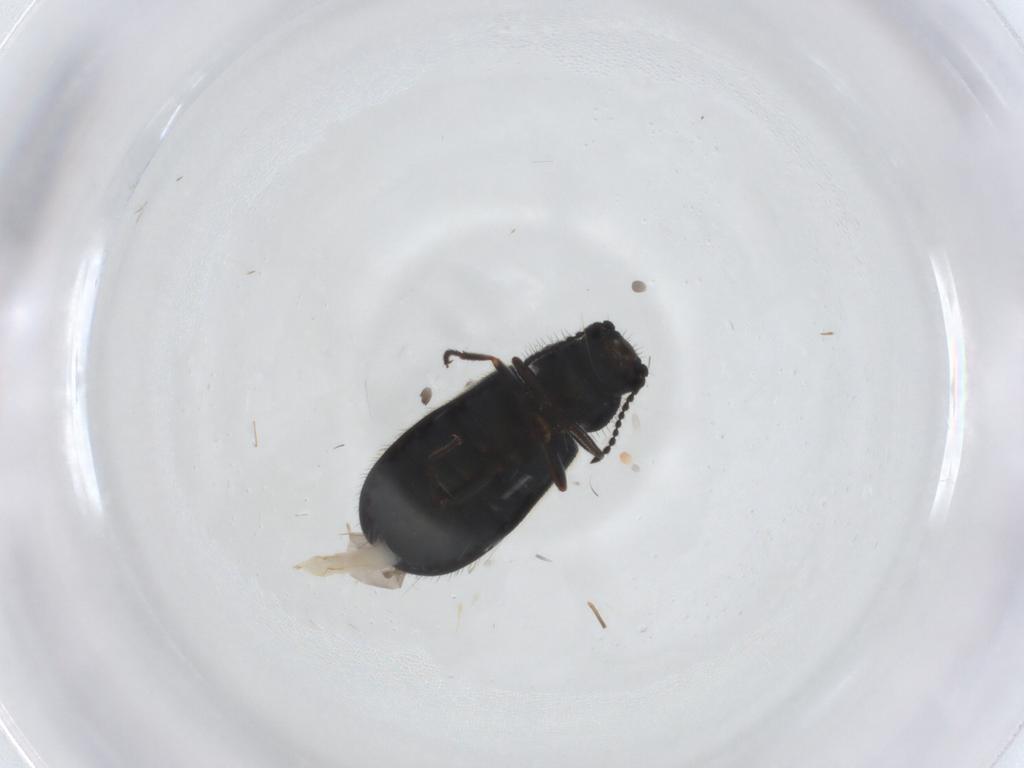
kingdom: Animalia
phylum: Arthropoda
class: Insecta
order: Coleoptera
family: Melyridae
